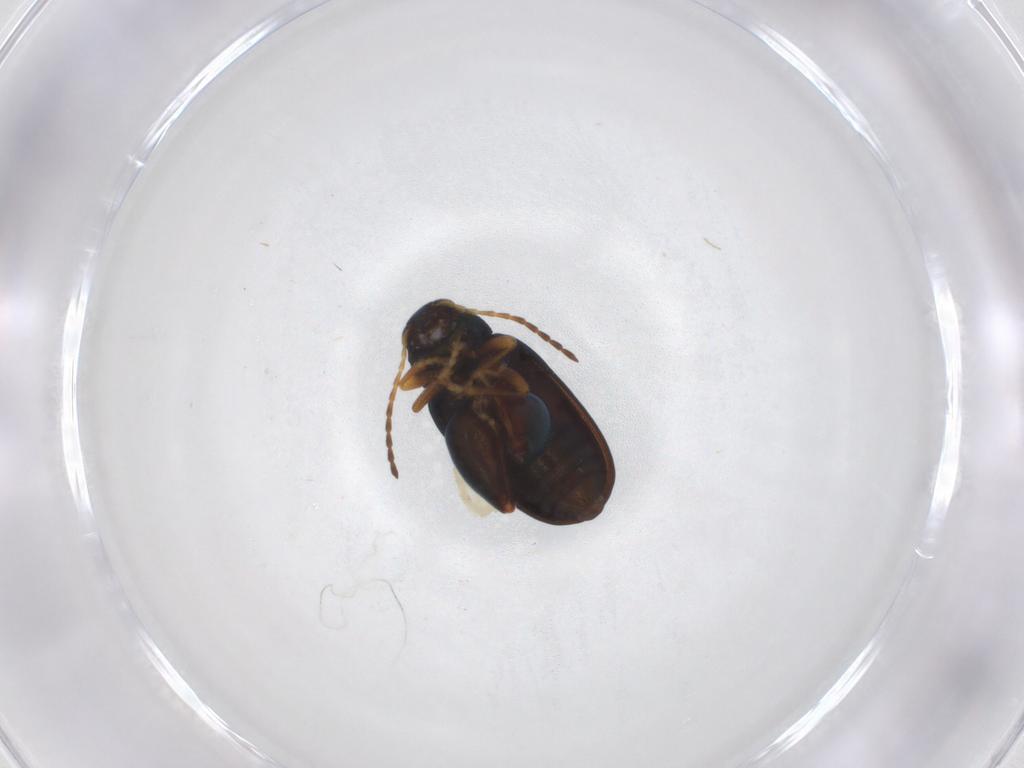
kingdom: Animalia
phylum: Arthropoda
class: Insecta
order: Coleoptera
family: Chrysomelidae
